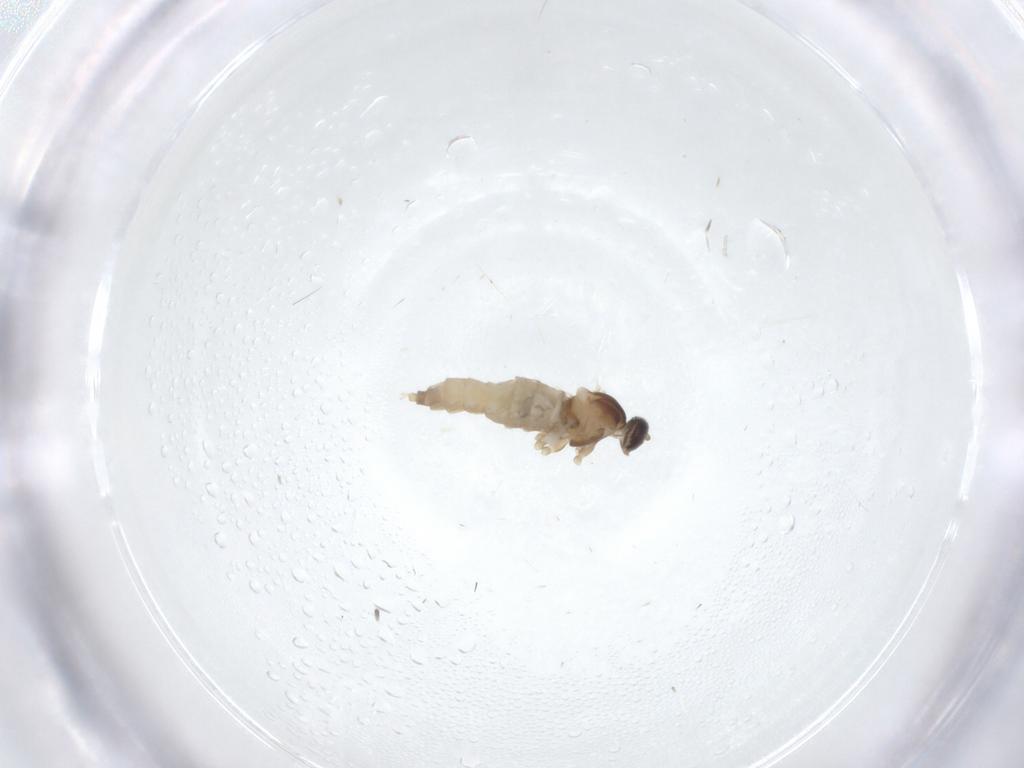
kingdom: Animalia
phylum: Arthropoda
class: Insecta
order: Diptera
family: Cecidomyiidae
